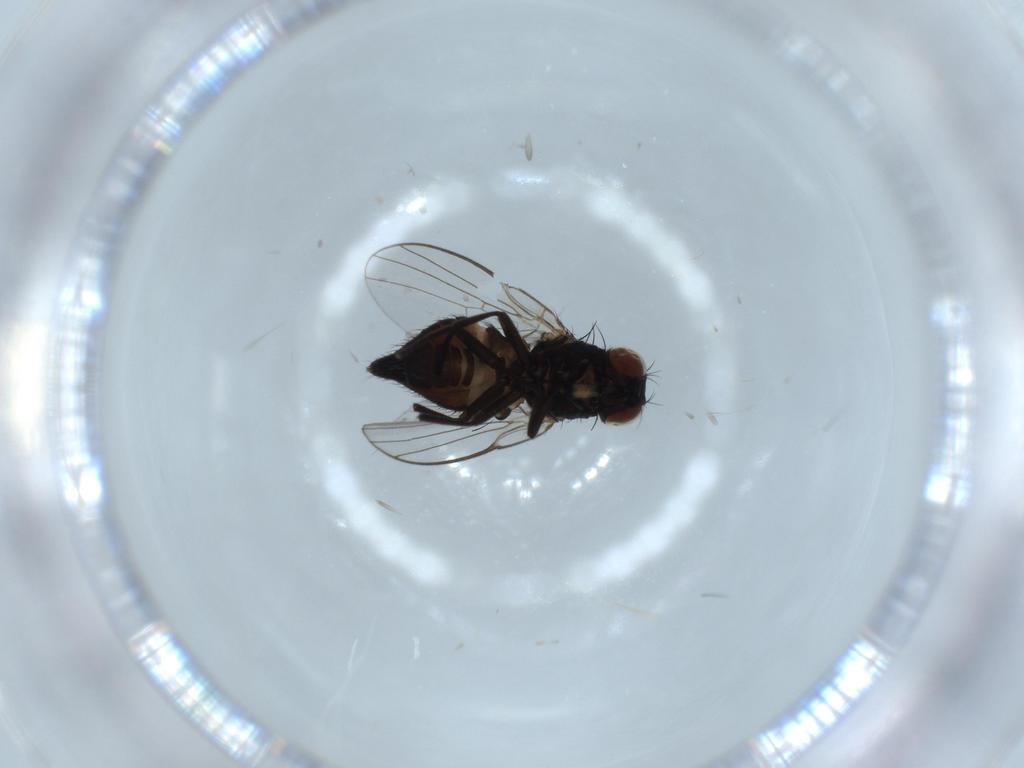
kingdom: Animalia
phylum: Arthropoda
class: Insecta
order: Diptera
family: Agromyzidae
